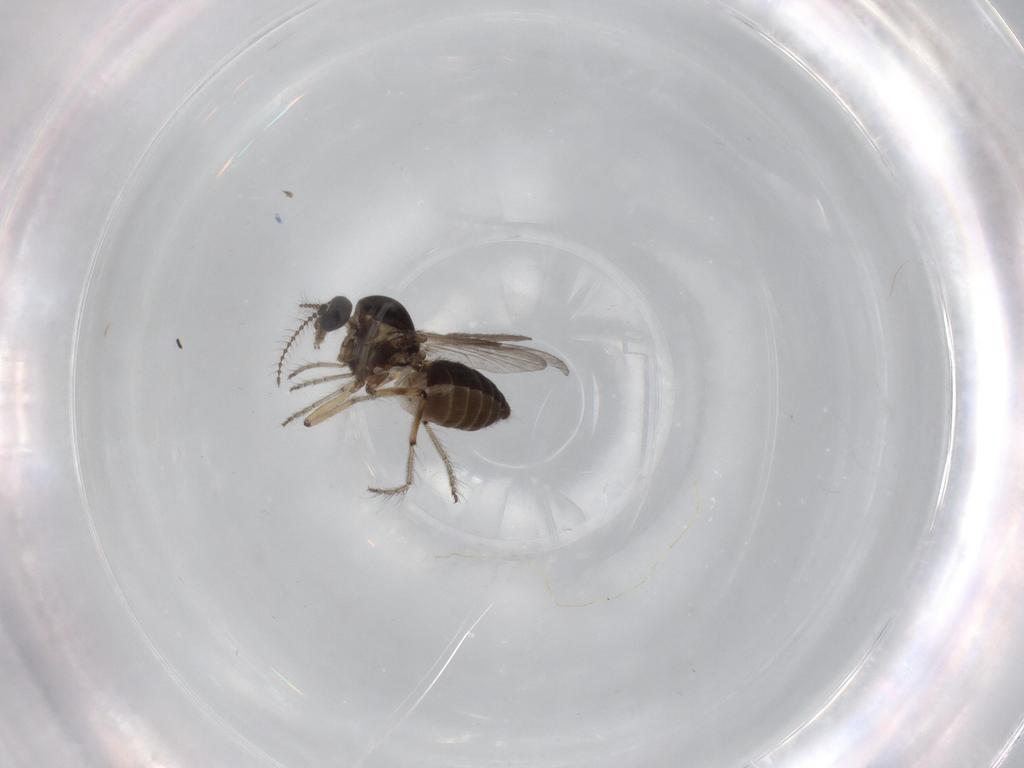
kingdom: Animalia
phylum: Arthropoda
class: Insecta
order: Diptera
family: Ceratopogonidae
